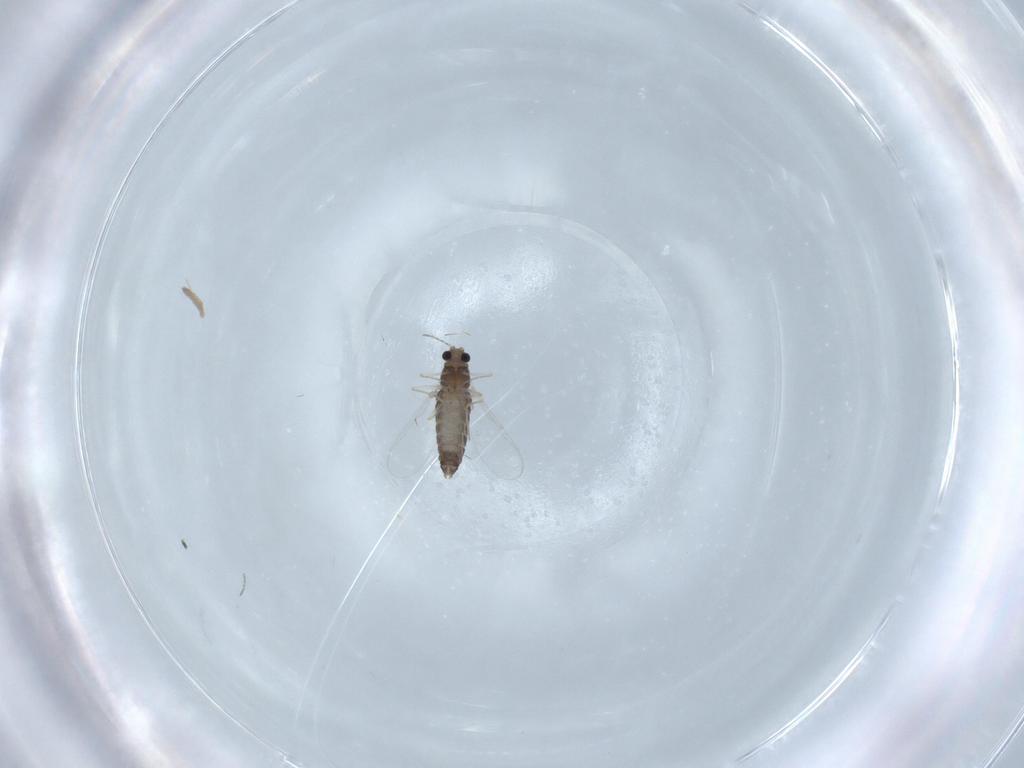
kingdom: Animalia
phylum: Arthropoda
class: Insecta
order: Diptera
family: Chironomidae
